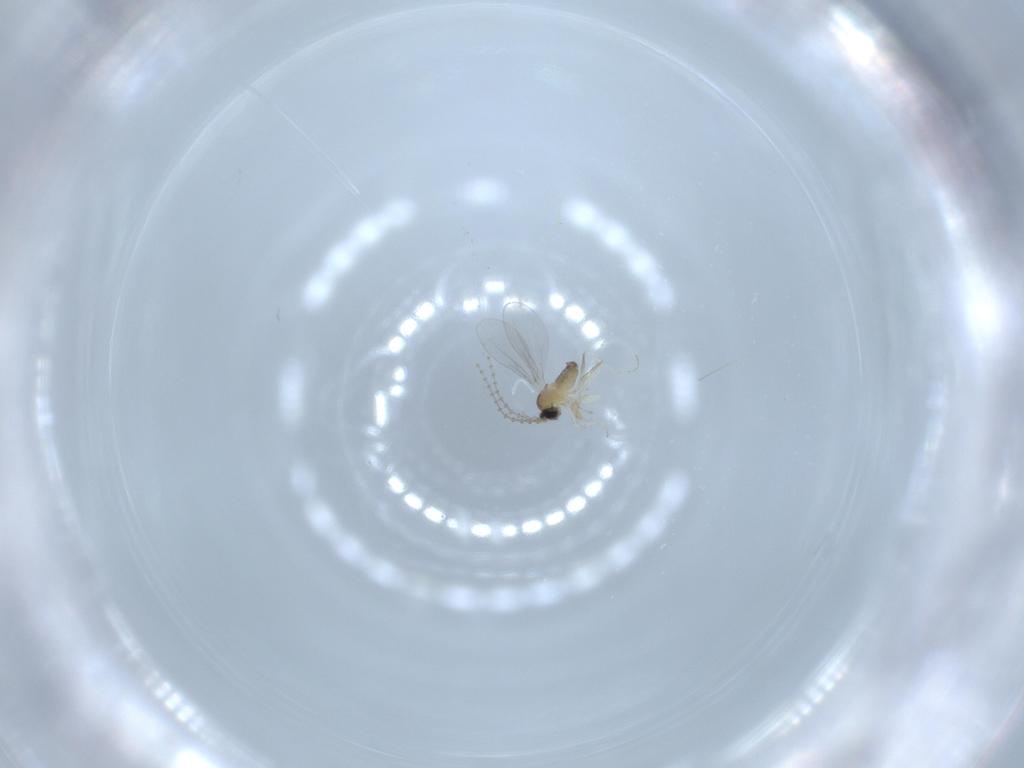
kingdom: Animalia
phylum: Arthropoda
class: Insecta
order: Diptera
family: Cecidomyiidae
